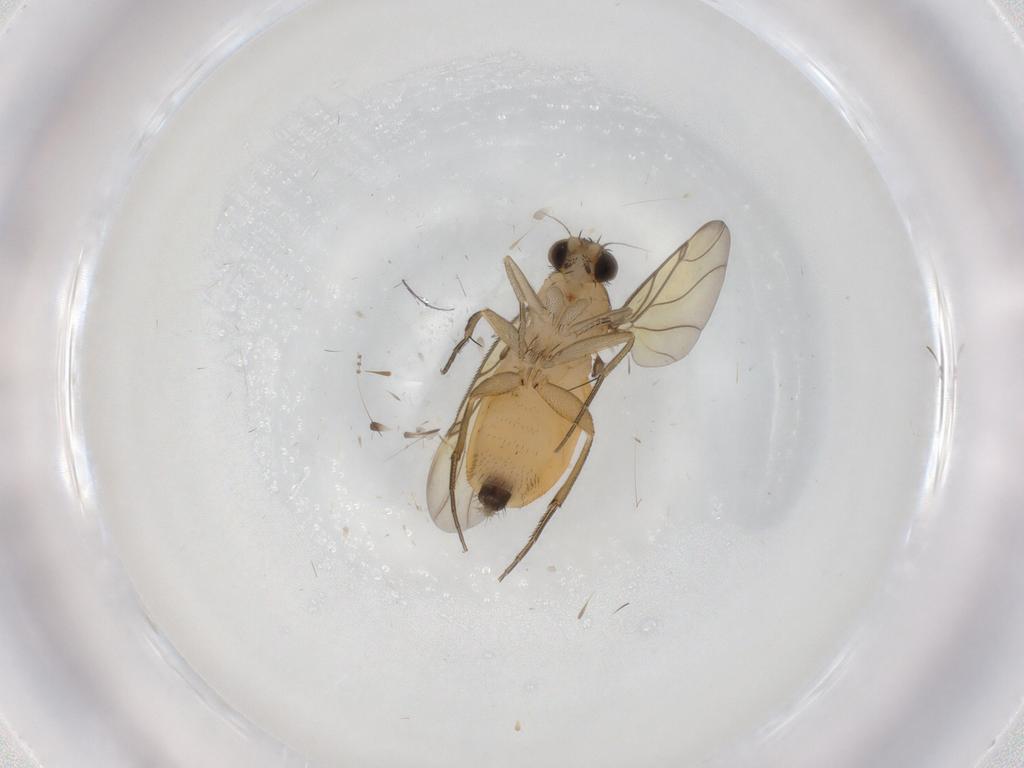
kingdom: Animalia
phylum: Arthropoda
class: Insecta
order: Diptera
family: Phoridae
